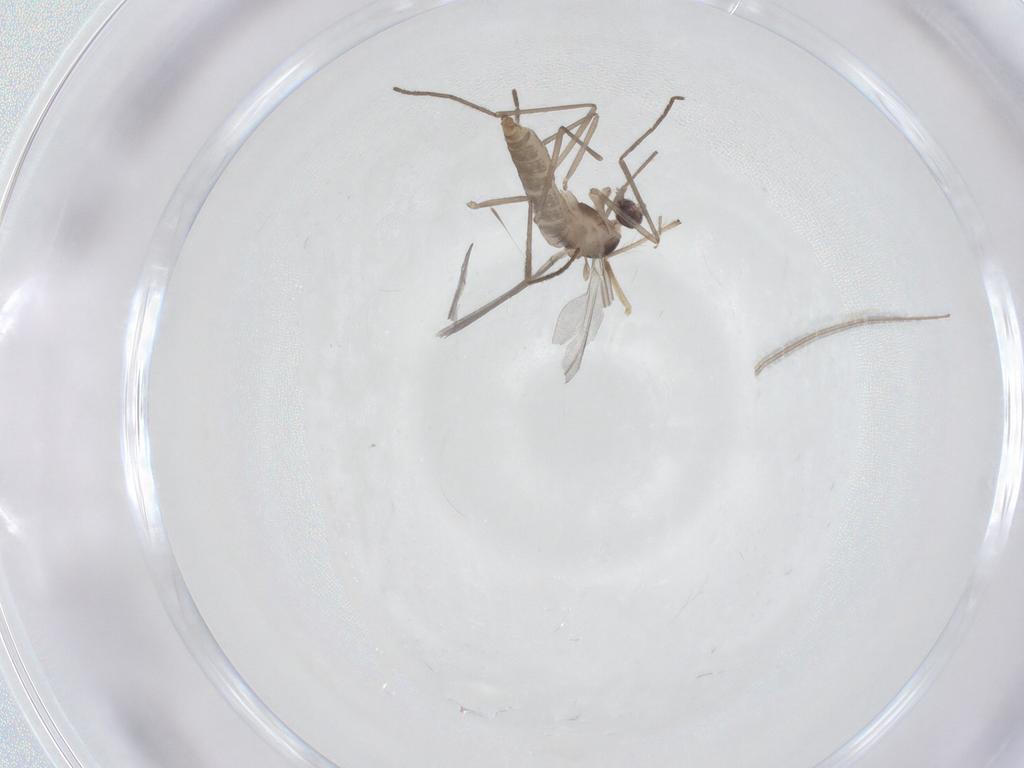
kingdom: Animalia
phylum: Arthropoda
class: Insecta
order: Diptera
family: Cecidomyiidae
